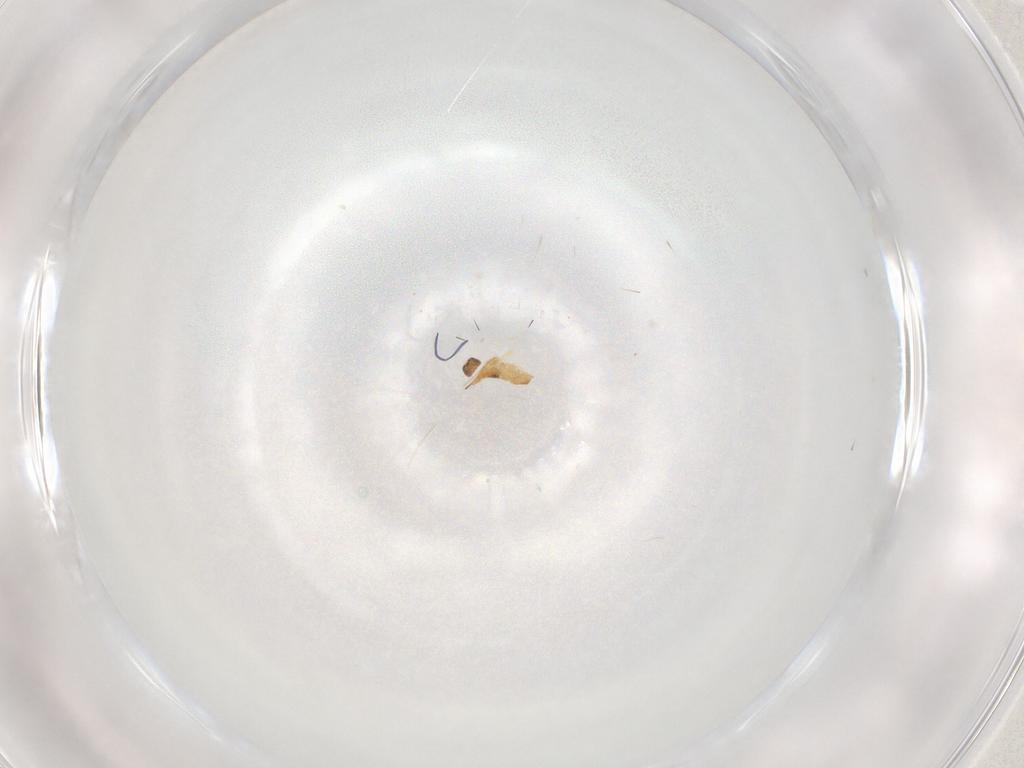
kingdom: Animalia
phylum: Arthropoda
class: Insecta
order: Hymenoptera
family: Mymaridae
